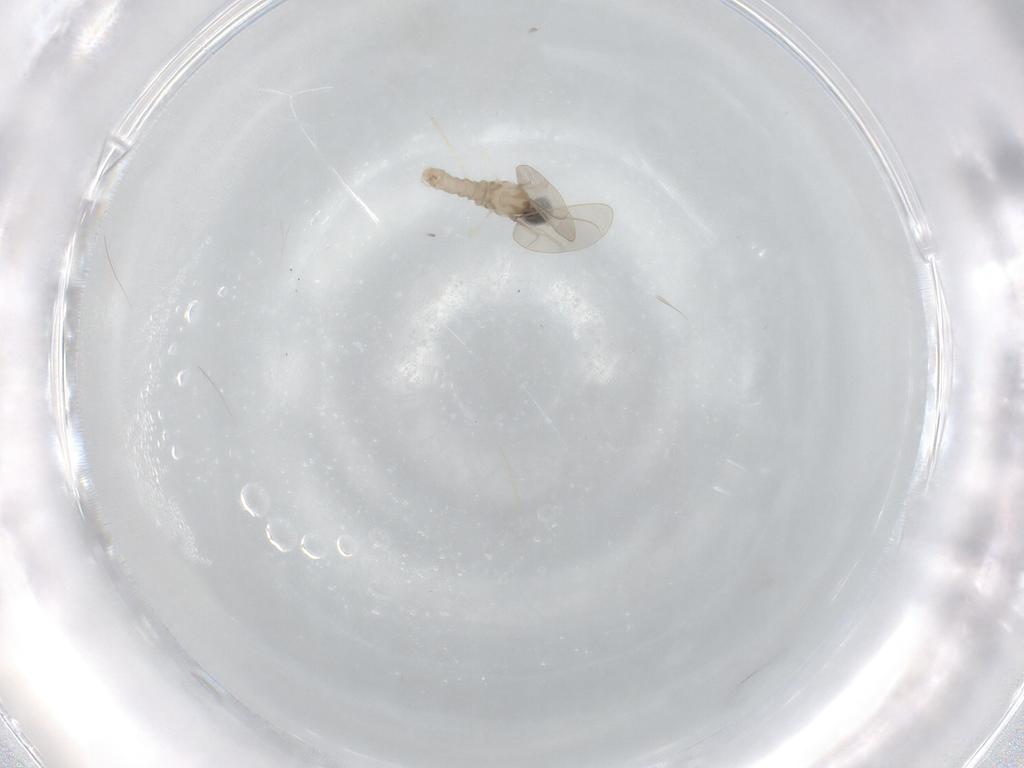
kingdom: Animalia
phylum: Arthropoda
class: Insecta
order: Diptera
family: Cecidomyiidae
